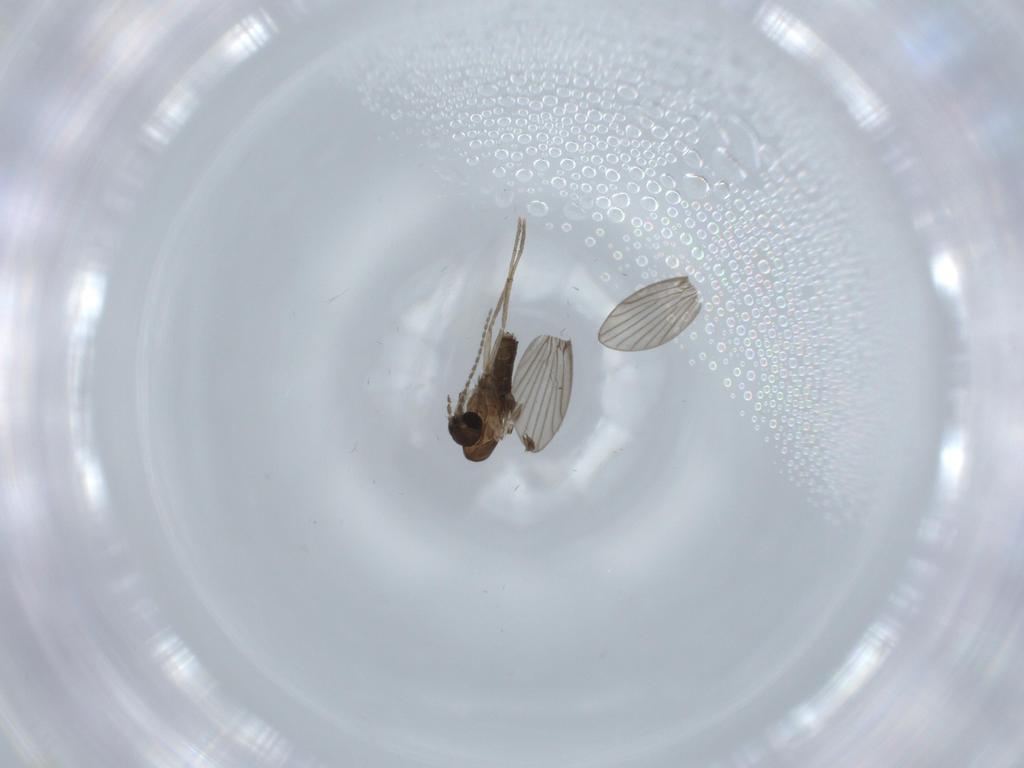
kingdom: Animalia
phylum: Arthropoda
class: Insecta
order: Diptera
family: Psychodidae
